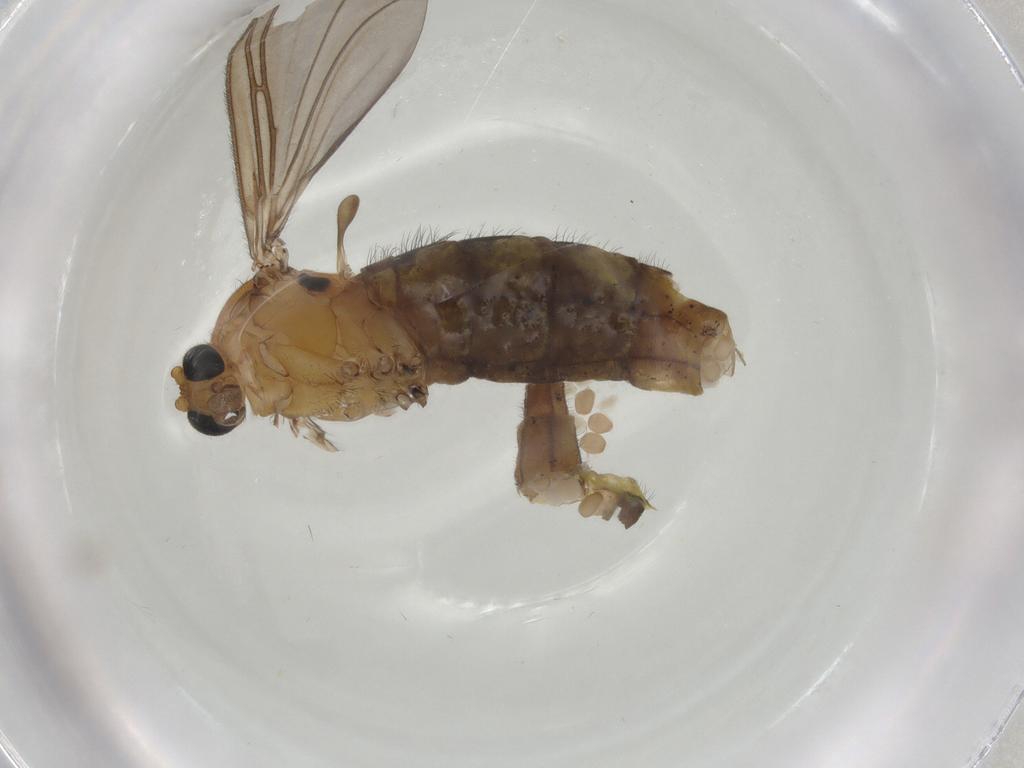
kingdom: Animalia
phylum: Arthropoda
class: Insecta
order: Diptera
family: Sciaridae
